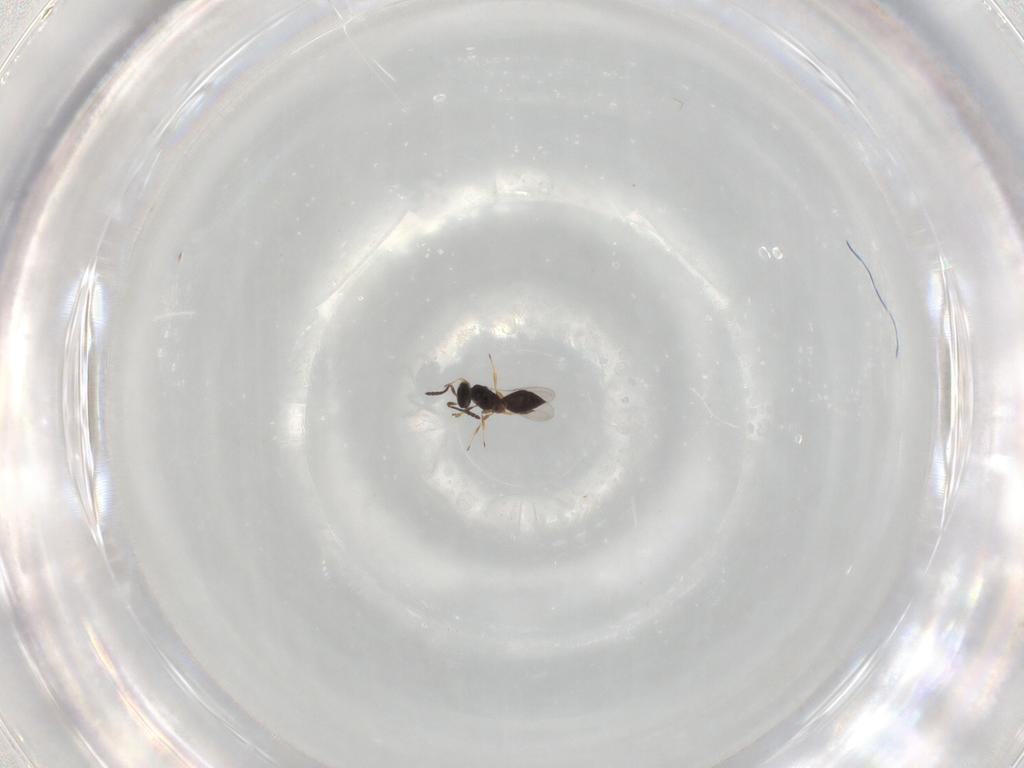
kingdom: Animalia
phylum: Arthropoda
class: Insecta
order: Hymenoptera
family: Scelionidae
